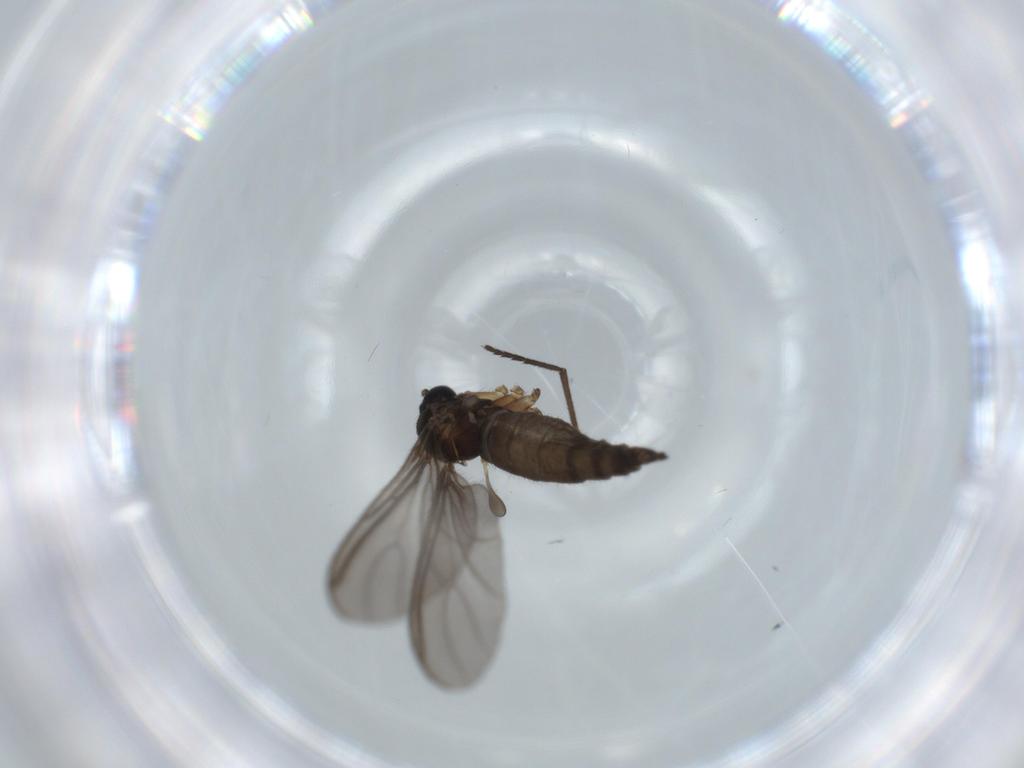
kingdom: Animalia
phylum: Arthropoda
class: Insecta
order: Diptera
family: Sciaridae
